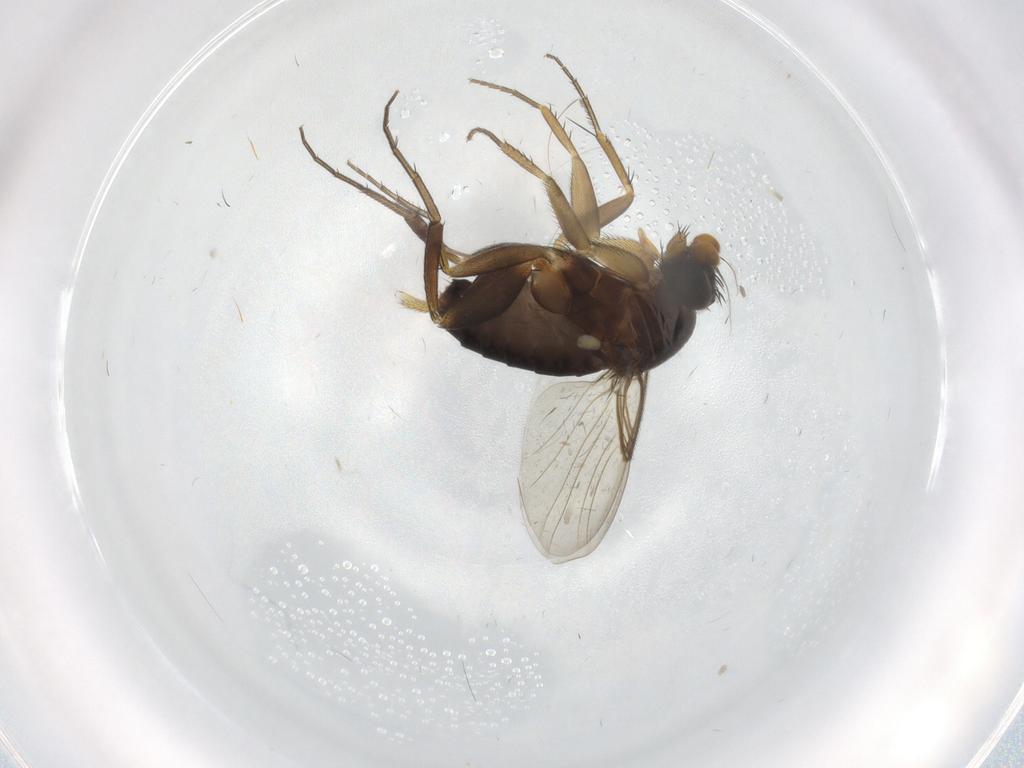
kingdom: Animalia
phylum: Arthropoda
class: Insecta
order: Diptera
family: Phoridae
